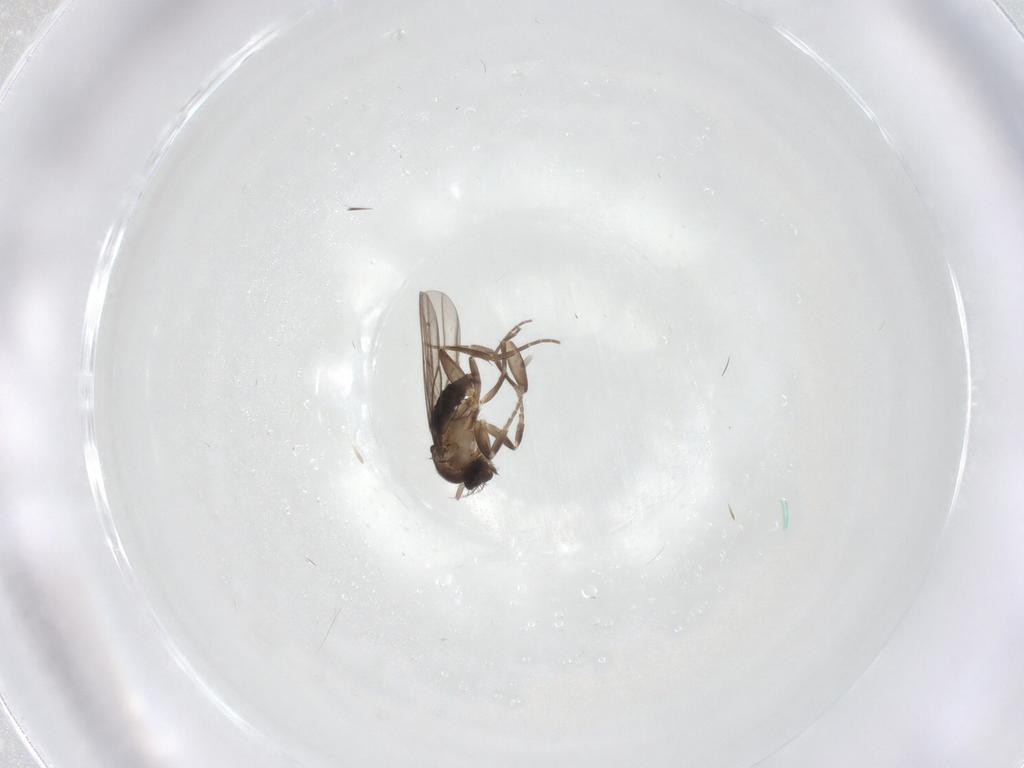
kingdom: Animalia
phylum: Arthropoda
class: Insecta
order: Diptera
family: Phoridae
